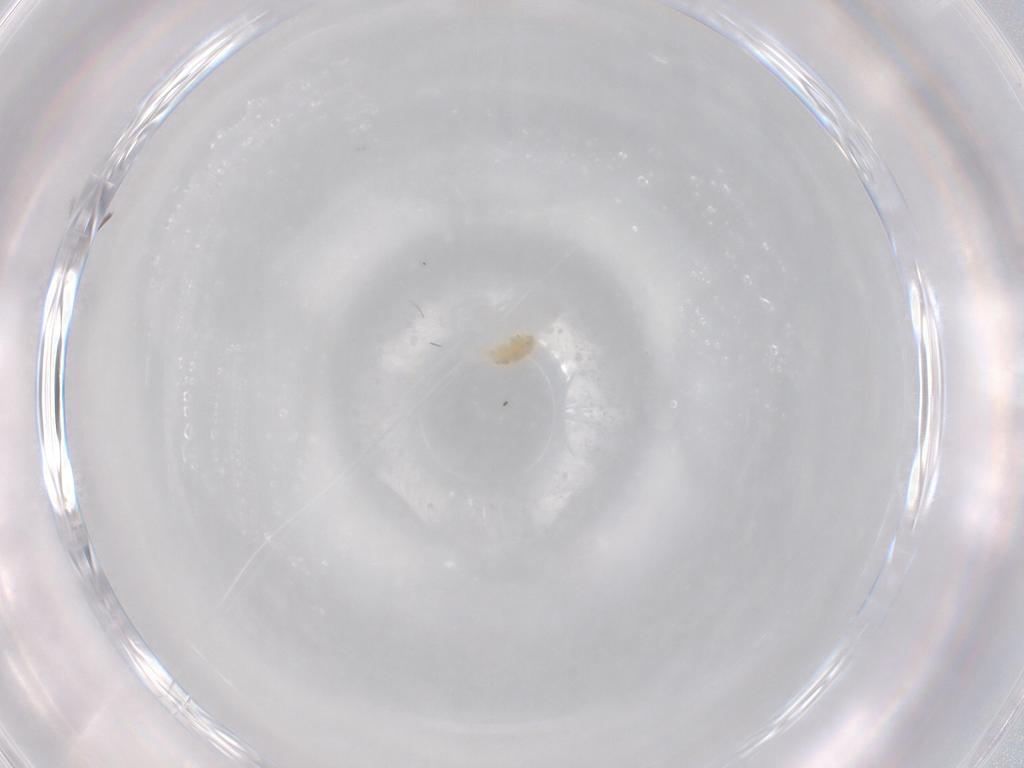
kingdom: Animalia
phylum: Arthropoda
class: Arachnida
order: Trombidiformes
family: Eupodidae
